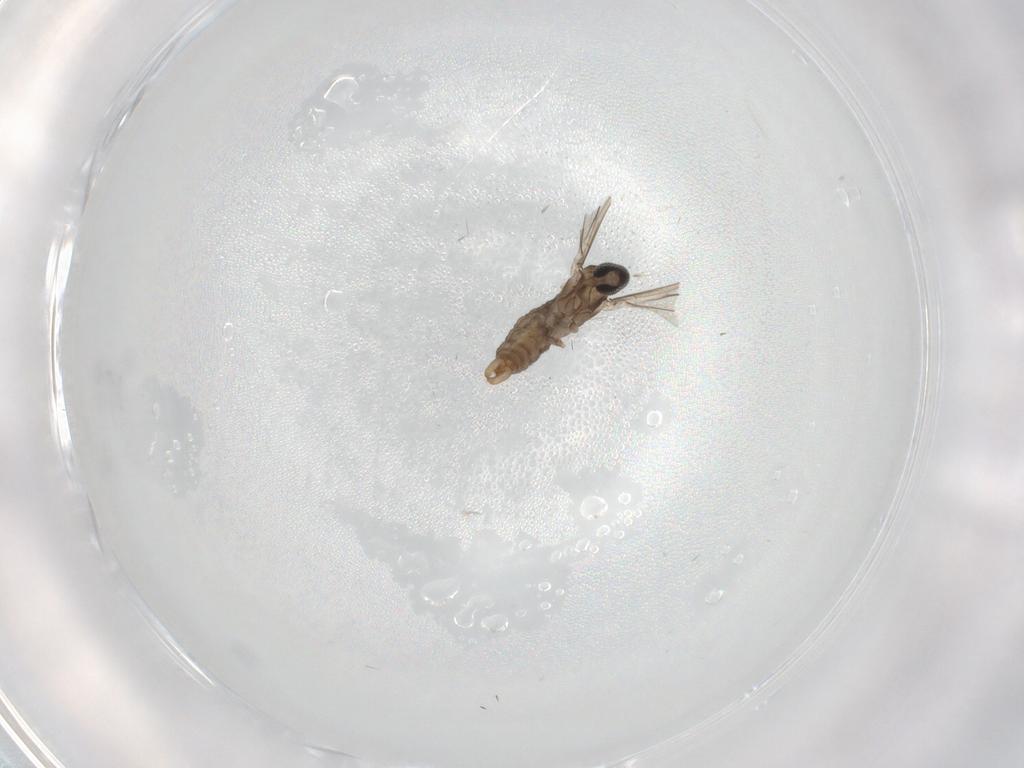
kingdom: Animalia
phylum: Arthropoda
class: Insecta
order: Diptera
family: Cecidomyiidae
